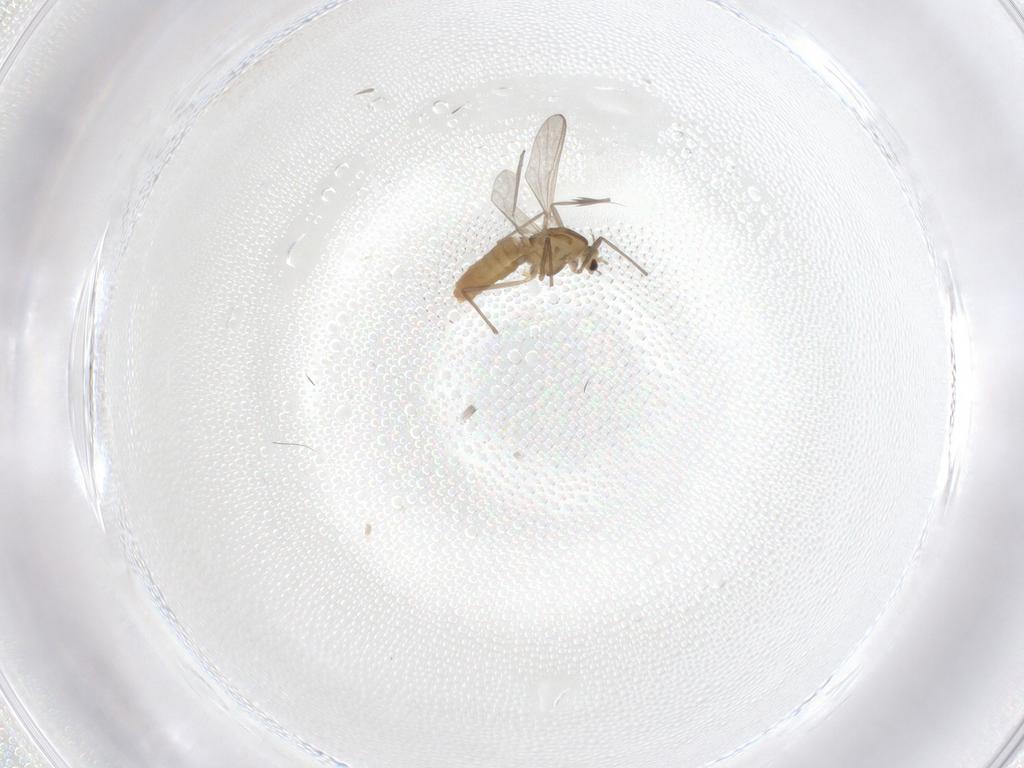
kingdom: Animalia
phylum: Arthropoda
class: Insecta
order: Diptera
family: Chironomidae
